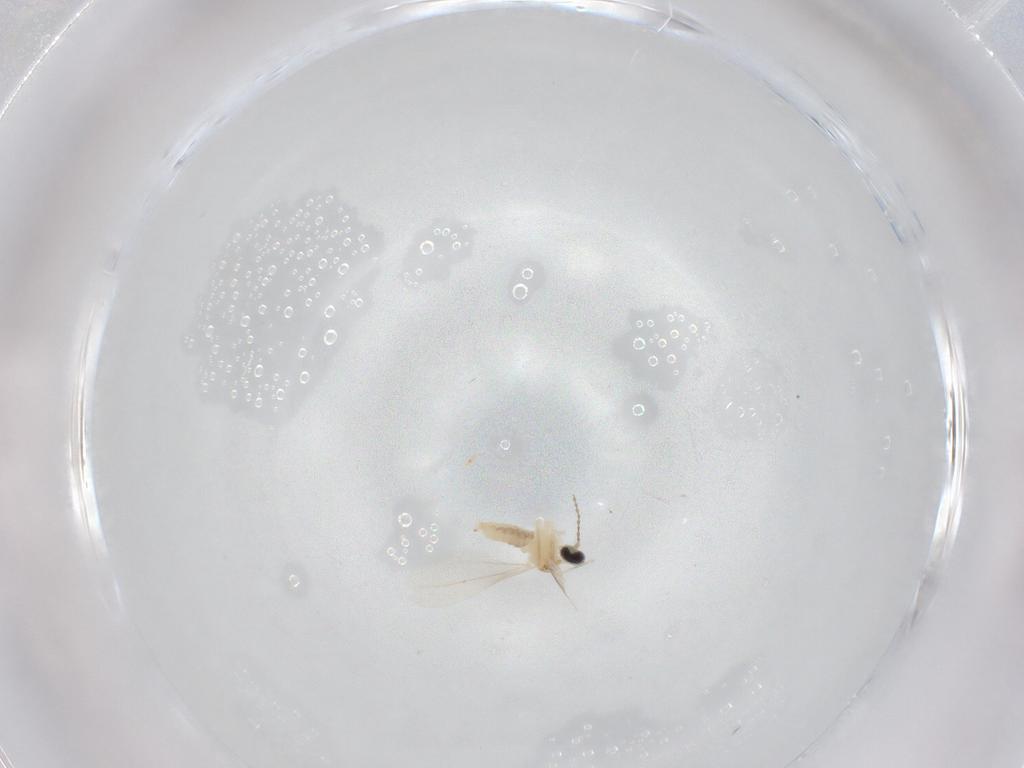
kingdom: Animalia
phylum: Arthropoda
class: Insecta
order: Diptera
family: Cecidomyiidae
